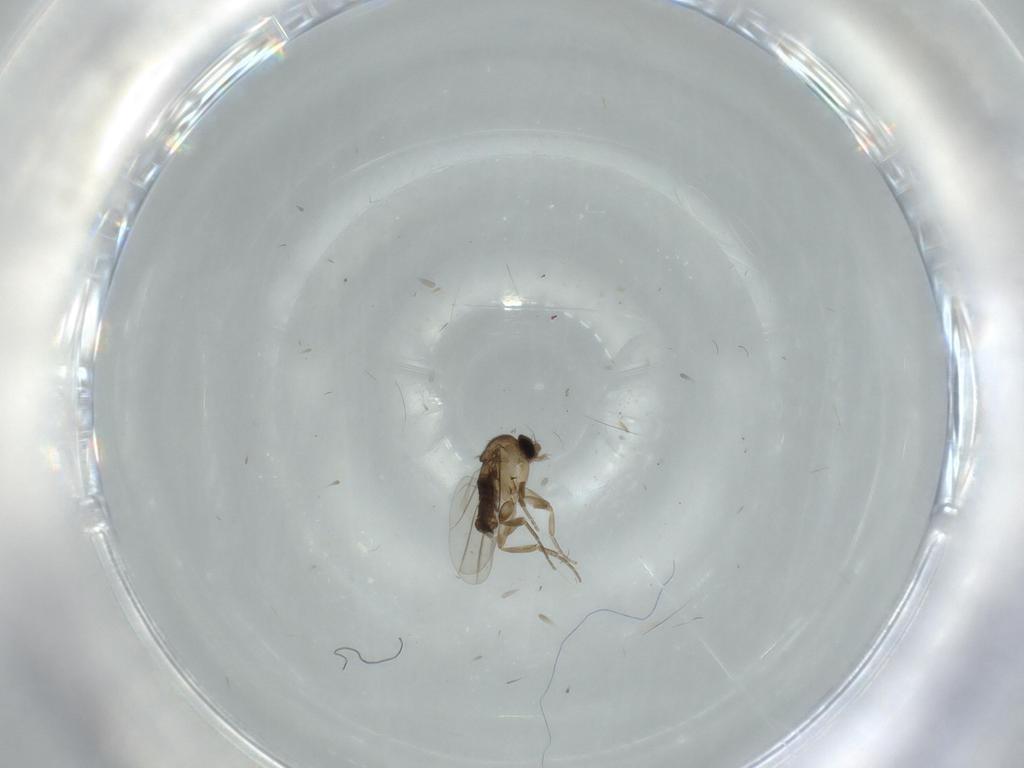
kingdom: Animalia
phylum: Arthropoda
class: Insecta
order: Diptera
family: Phoridae
